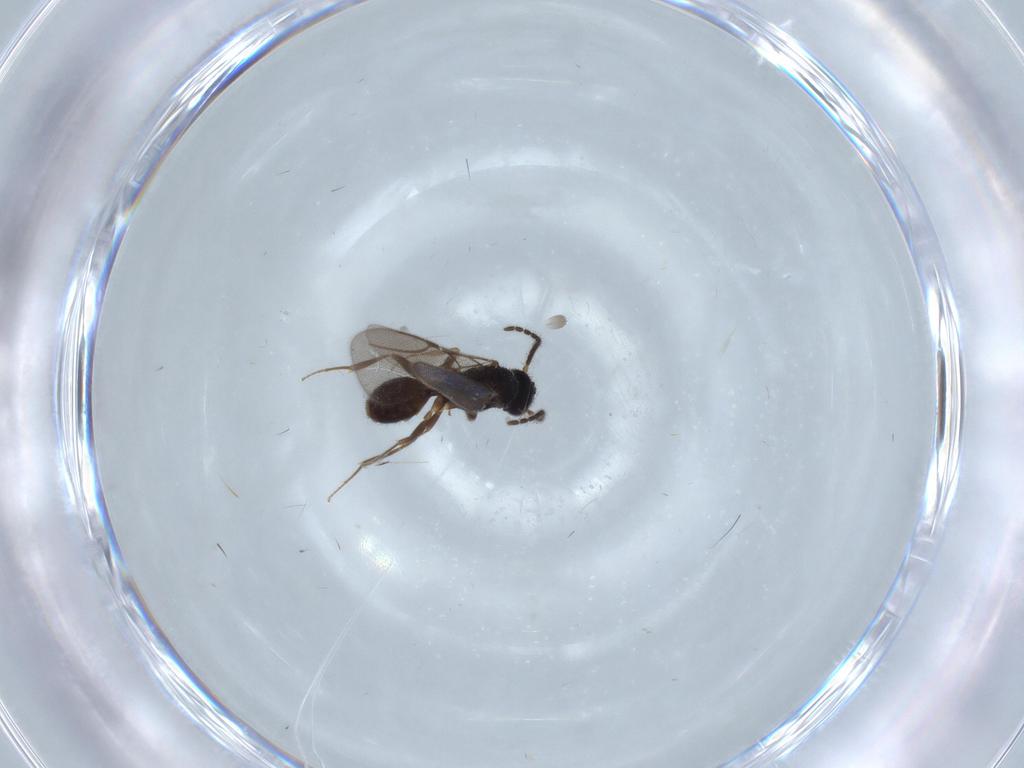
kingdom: Animalia
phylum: Arthropoda
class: Insecta
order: Hymenoptera
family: Bethylidae
